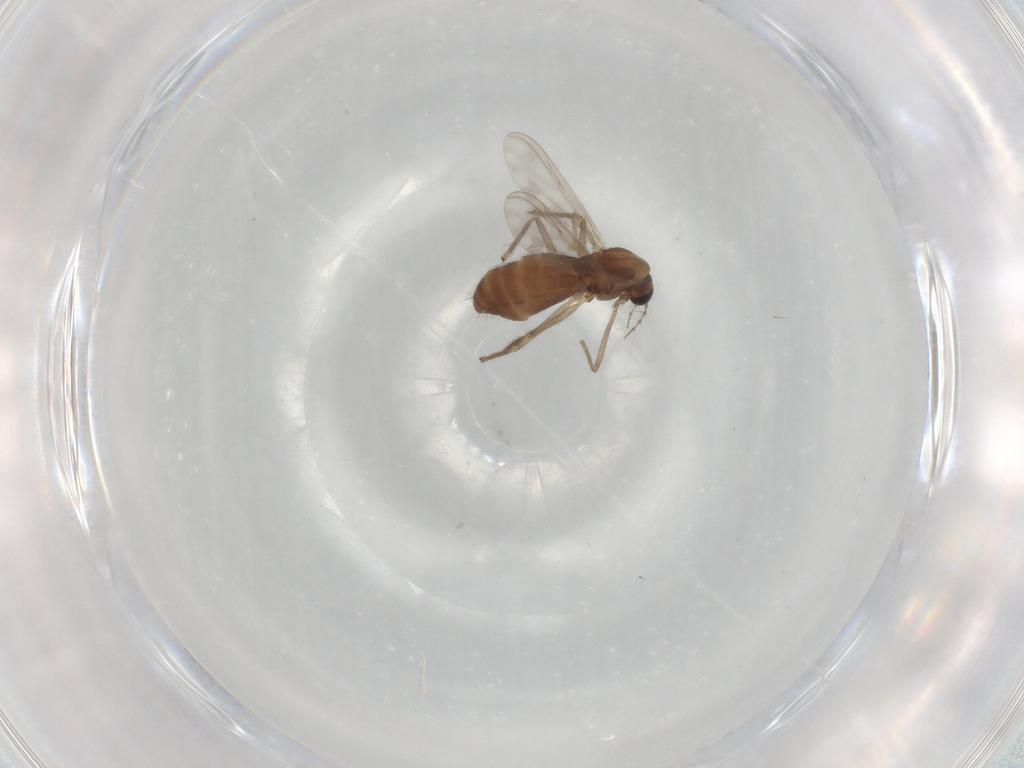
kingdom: Animalia
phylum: Arthropoda
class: Insecta
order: Diptera
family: Chironomidae
